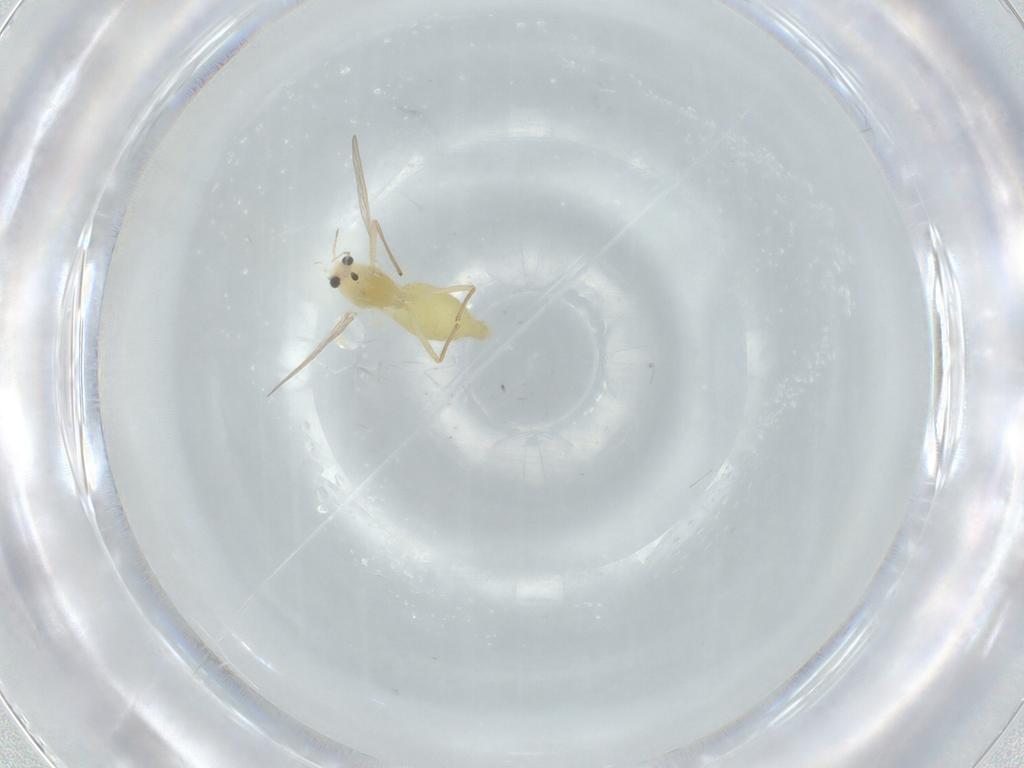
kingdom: Animalia
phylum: Arthropoda
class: Insecta
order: Diptera
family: Chironomidae
